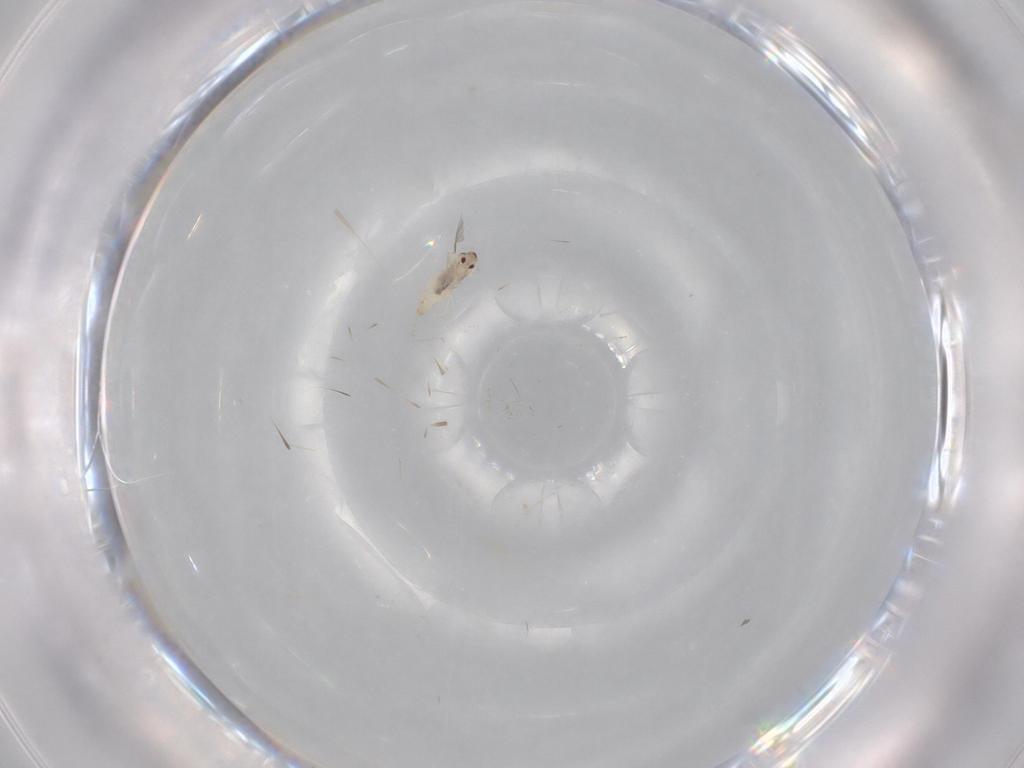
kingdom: Animalia
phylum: Arthropoda
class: Insecta
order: Diptera
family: Cecidomyiidae
